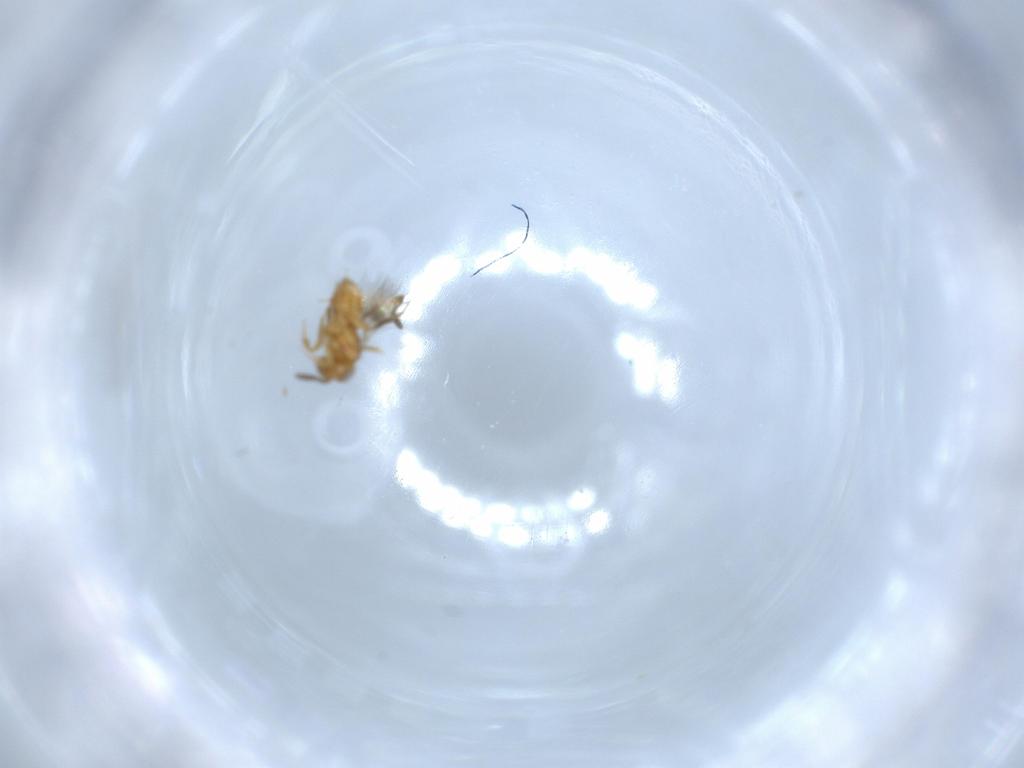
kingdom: Animalia
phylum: Arthropoda
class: Insecta
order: Hymenoptera
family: Scelionidae
